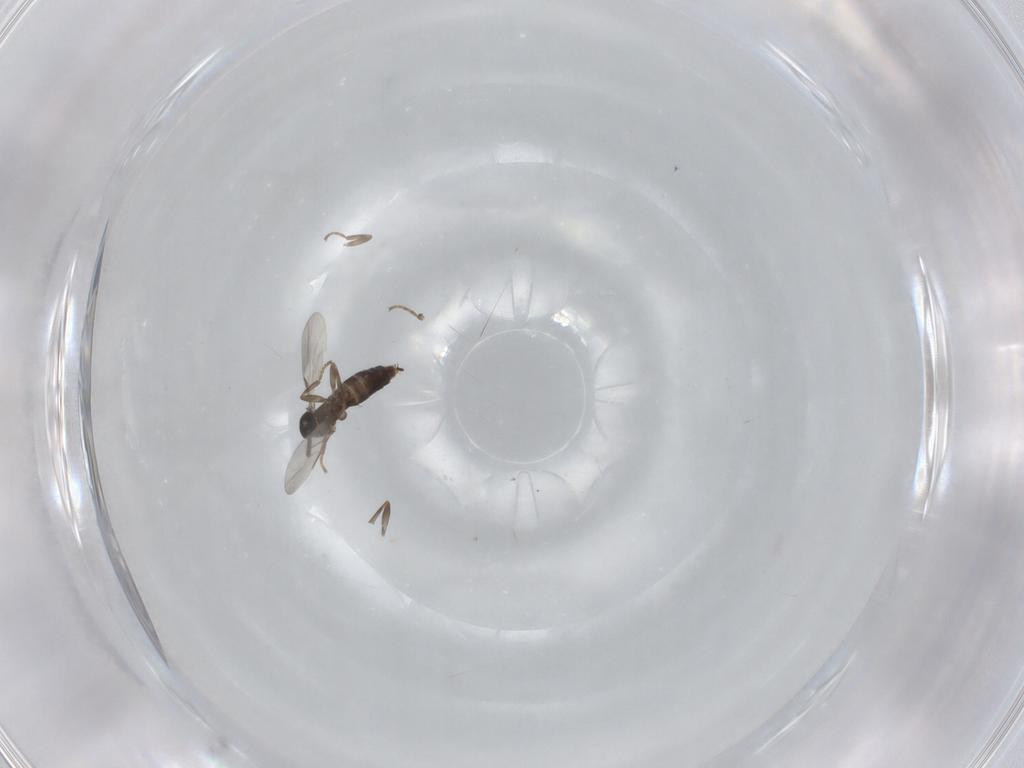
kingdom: Animalia
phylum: Arthropoda
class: Insecta
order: Diptera
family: Scatopsidae
